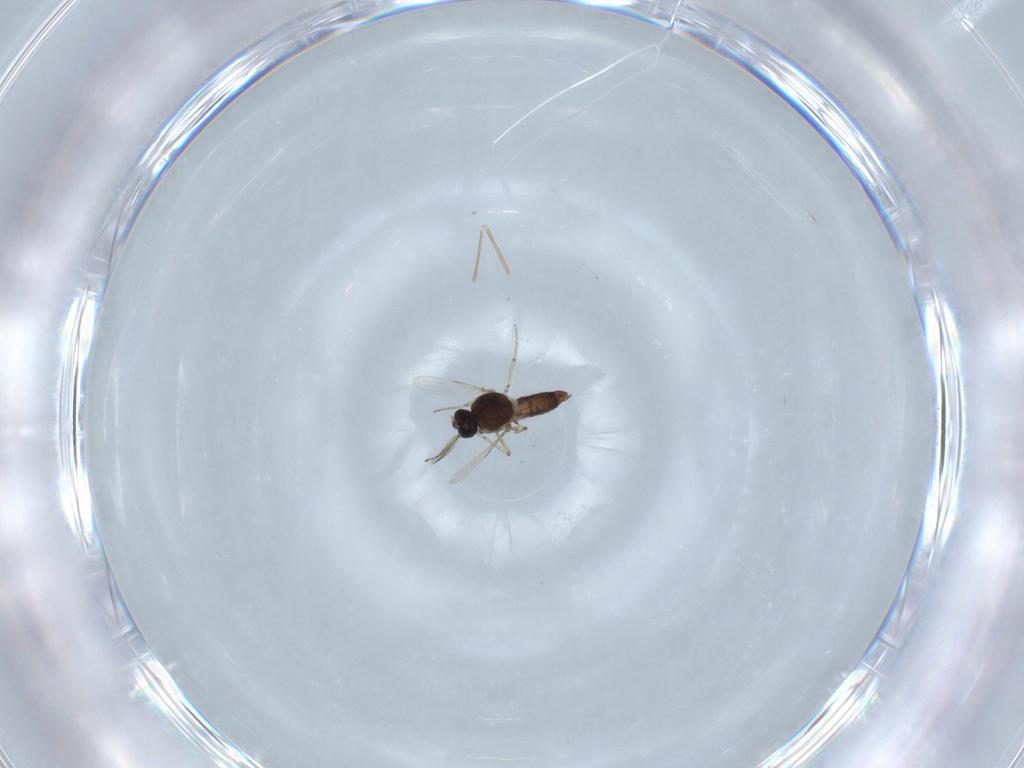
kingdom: Animalia
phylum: Arthropoda
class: Insecta
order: Diptera
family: Ceratopogonidae
